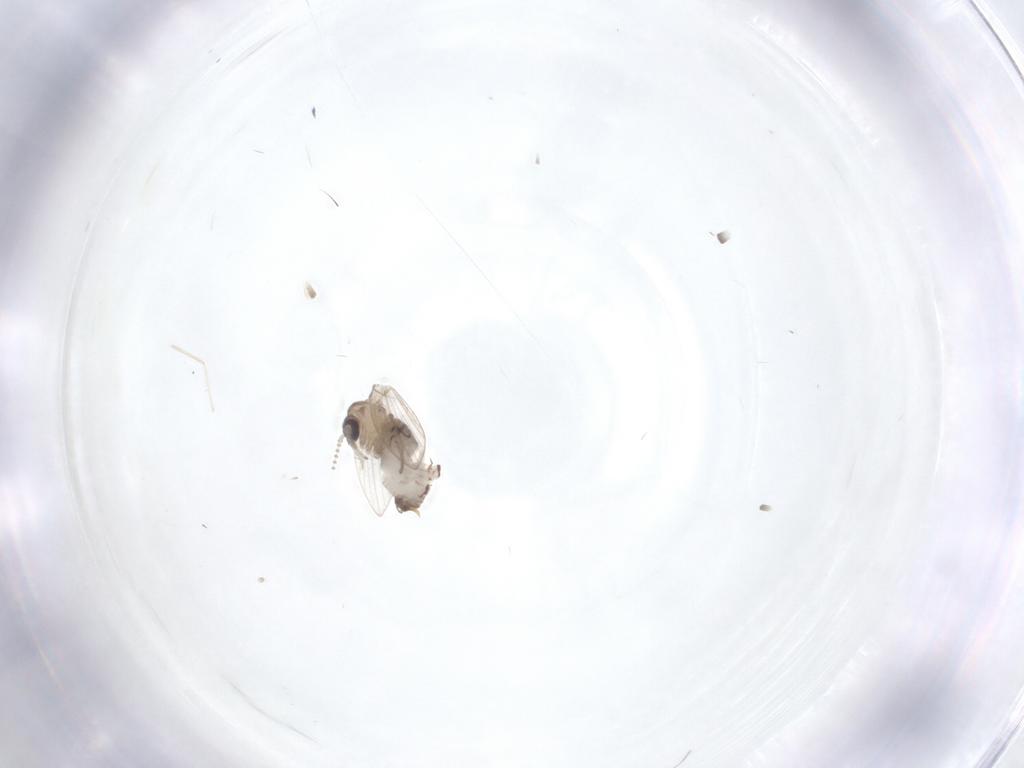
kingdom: Animalia
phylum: Arthropoda
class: Insecta
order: Diptera
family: Psychodidae
